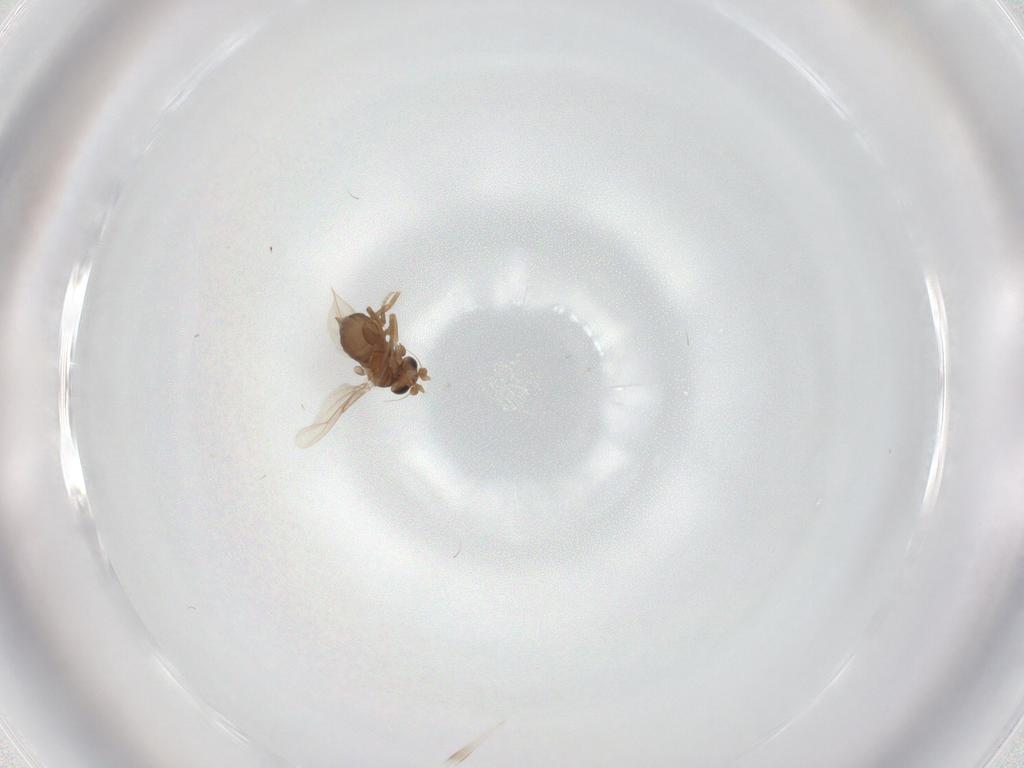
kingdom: Animalia
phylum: Arthropoda
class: Insecta
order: Diptera
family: Phoridae
